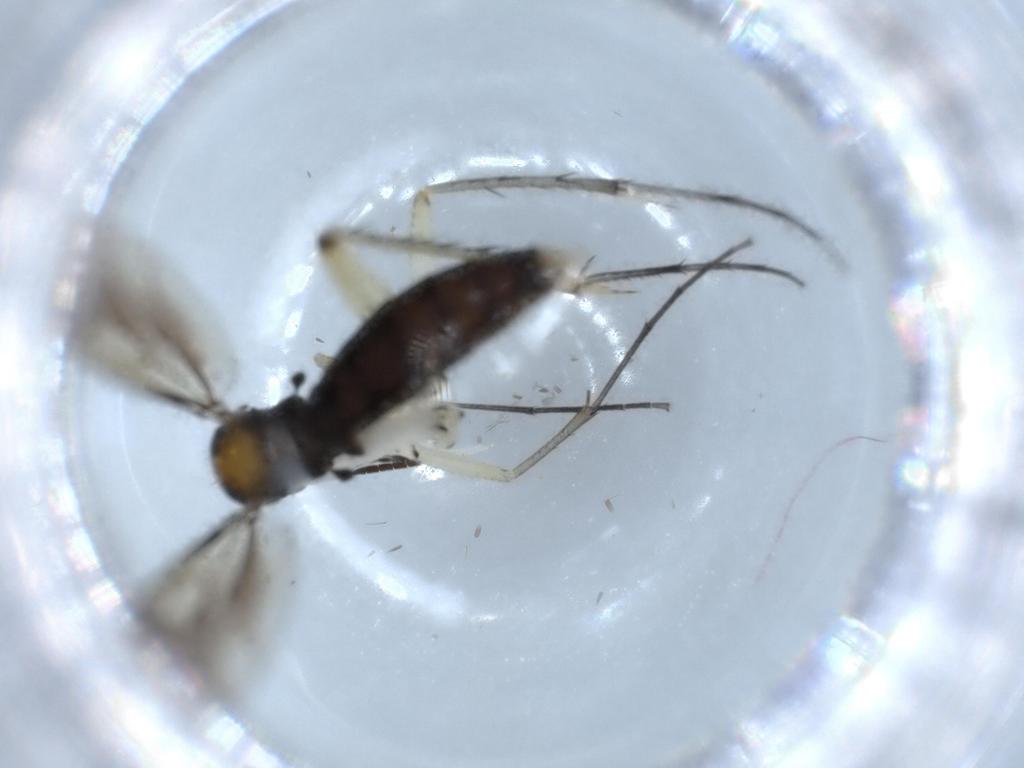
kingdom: Animalia
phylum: Arthropoda
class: Insecta
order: Diptera
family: Mycetophilidae
